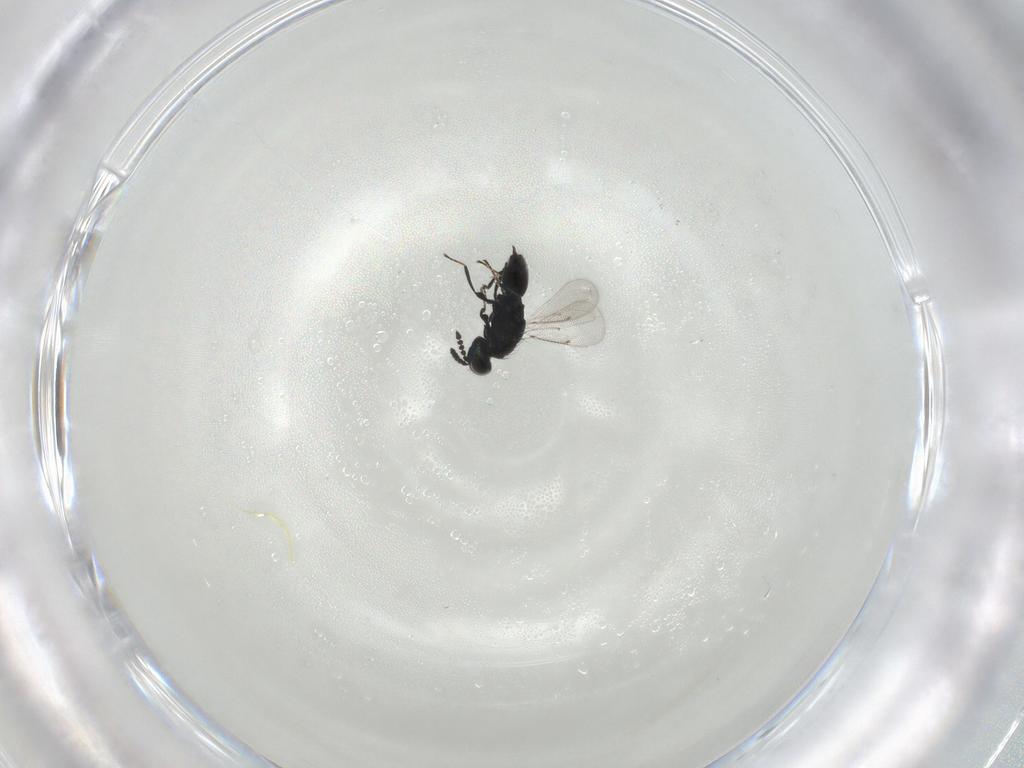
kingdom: Animalia
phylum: Arthropoda
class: Insecta
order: Hymenoptera
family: Eulophidae
